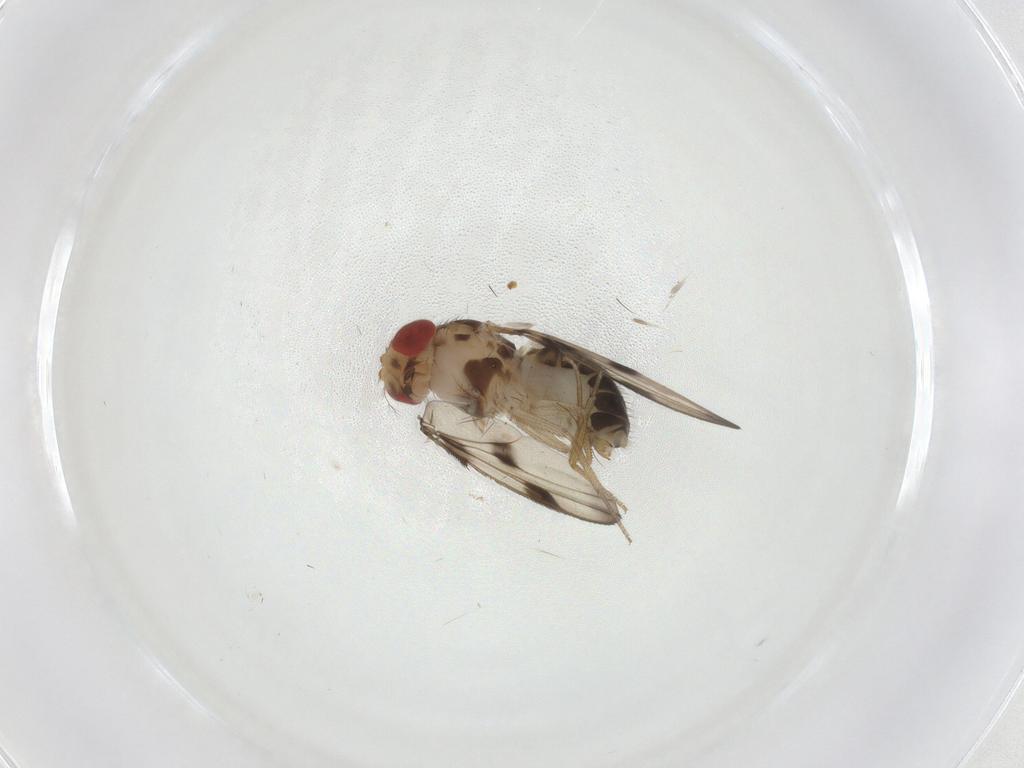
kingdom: Animalia
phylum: Arthropoda
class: Insecta
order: Diptera
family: Drosophilidae
